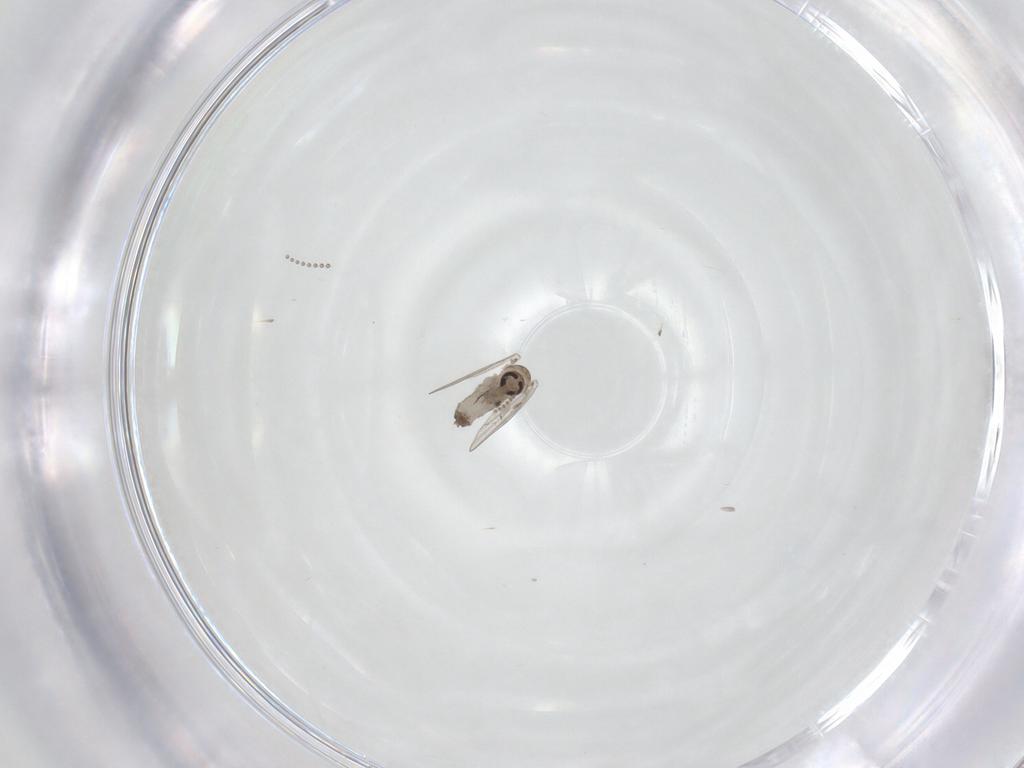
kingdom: Animalia
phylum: Arthropoda
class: Insecta
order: Diptera
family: Psychodidae
